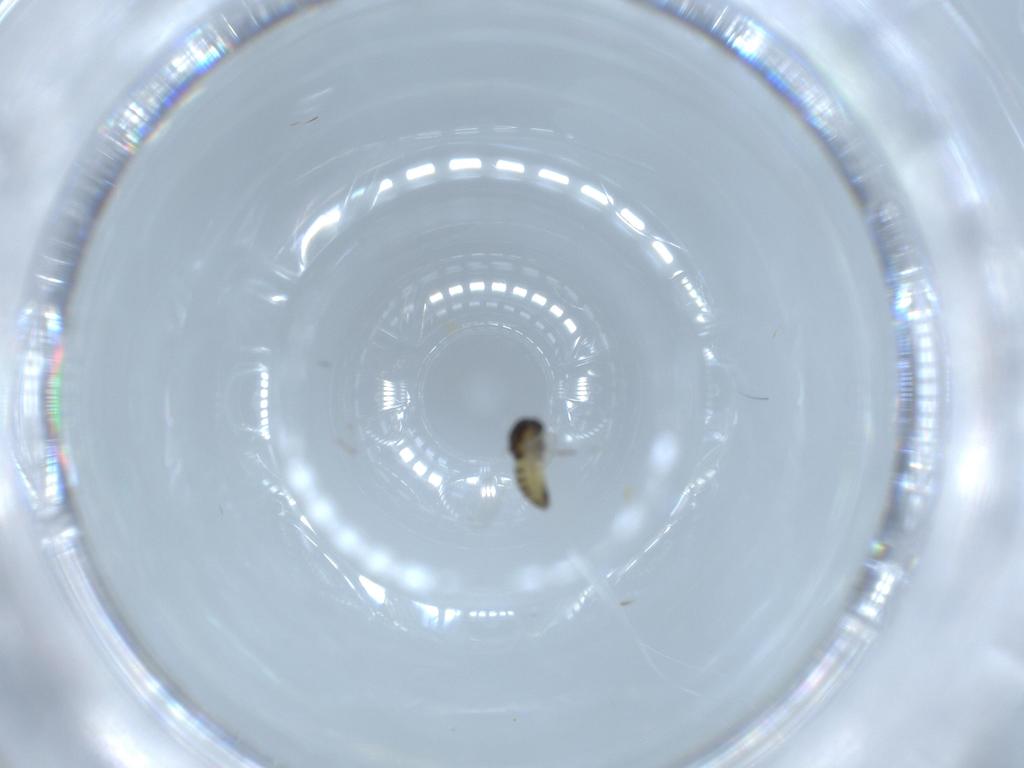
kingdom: Animalia
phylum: Arthropoda
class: Insecta
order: Diptera
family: Chironomidae
